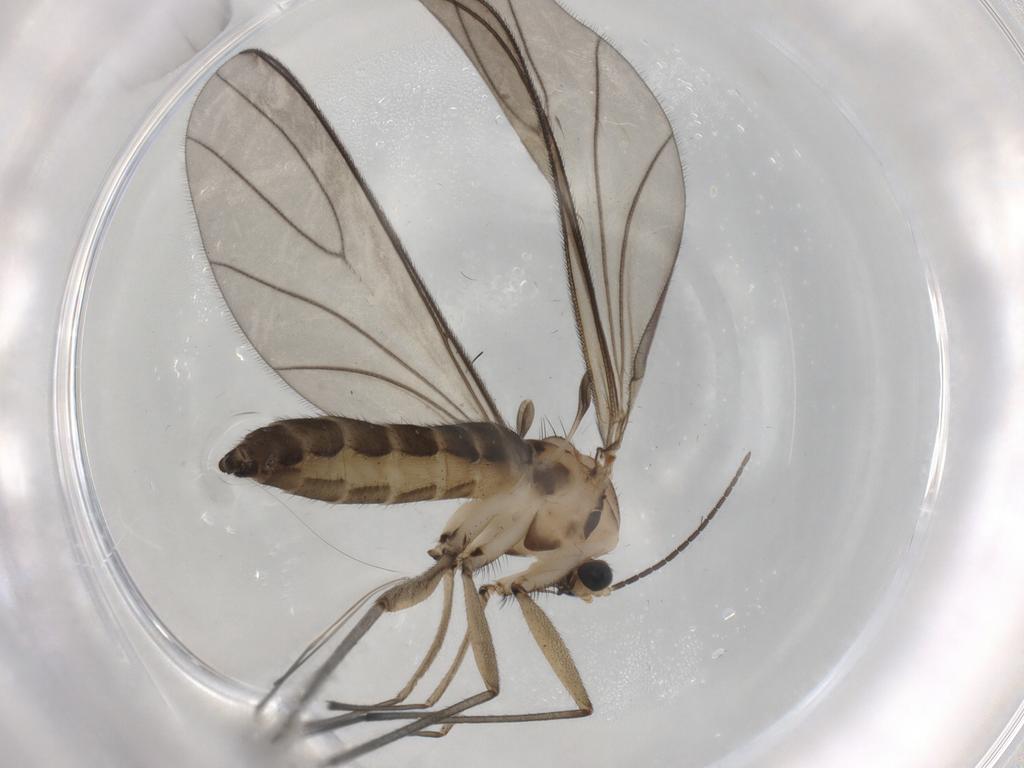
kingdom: Animalia
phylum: Arthropoda
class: Insecta
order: Diptera
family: Sciaridae
